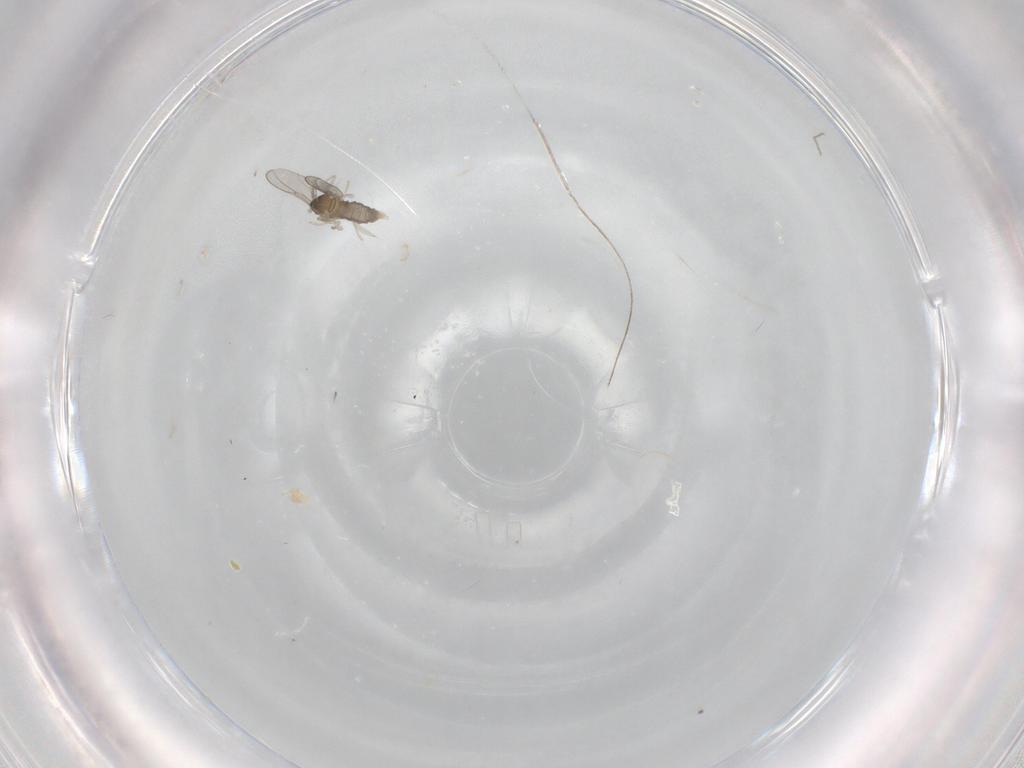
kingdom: Animalia
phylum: Arthropoda
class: Insecta
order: Diptera
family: Cecidomyiidae
